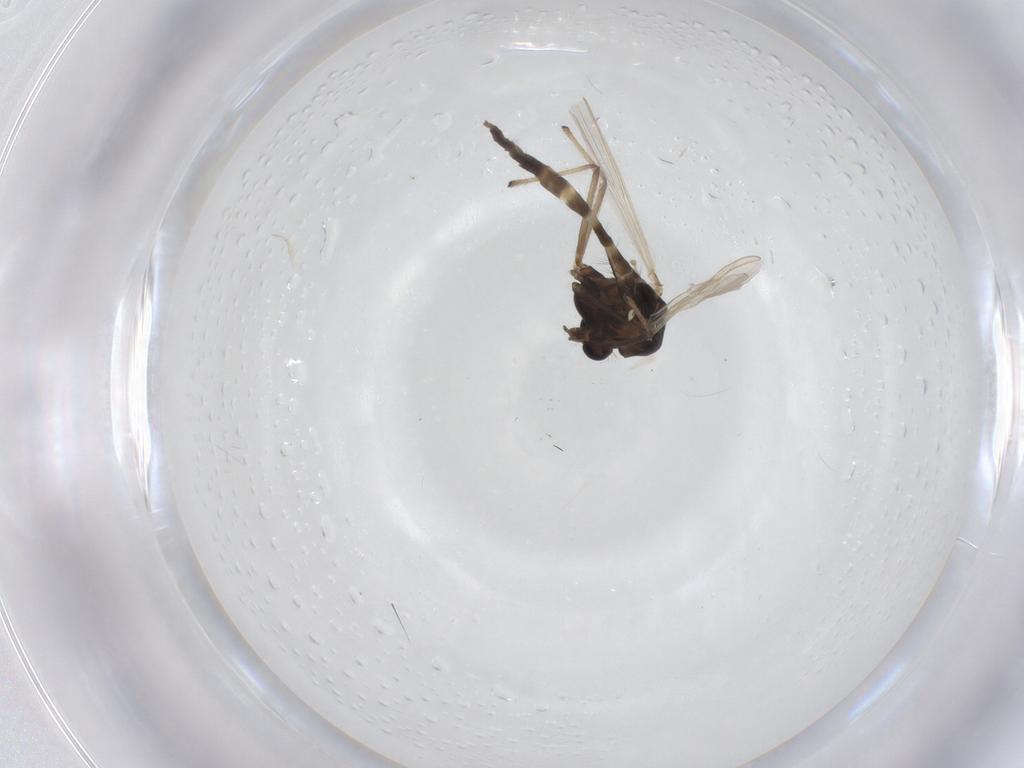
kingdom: Animalia
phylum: Arthropoda
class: Insecta
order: Diptera
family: Chironomidae
